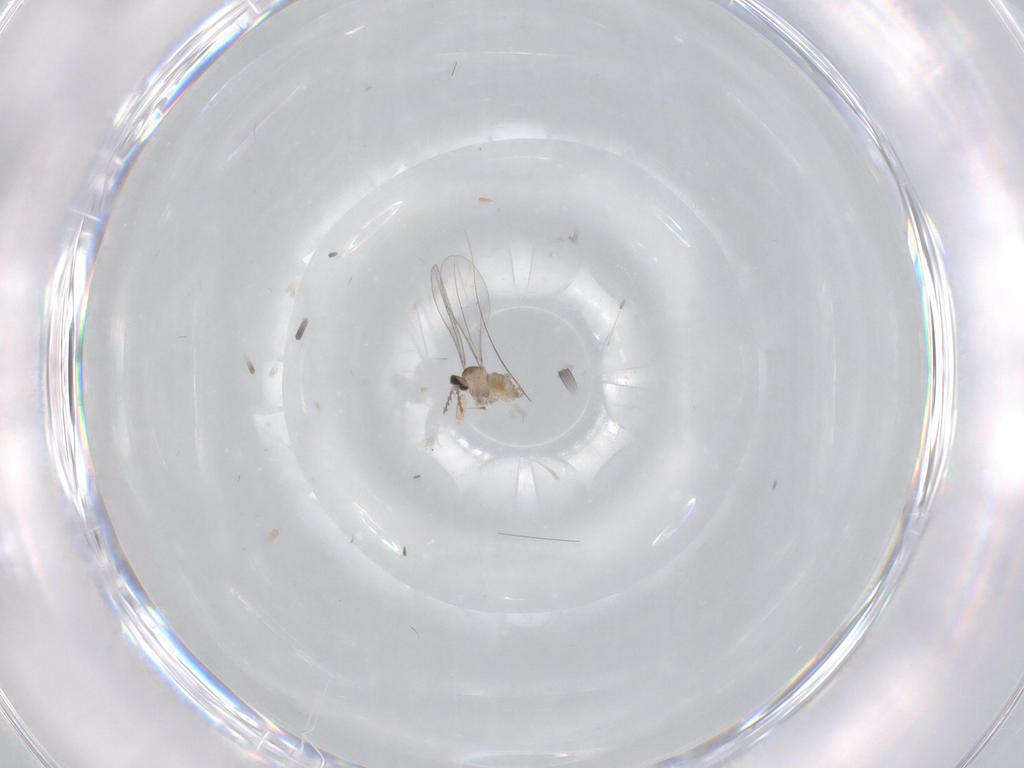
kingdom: Animalia
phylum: Arthropoda
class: Insecta
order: Diptera
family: Cecidomyiidae
